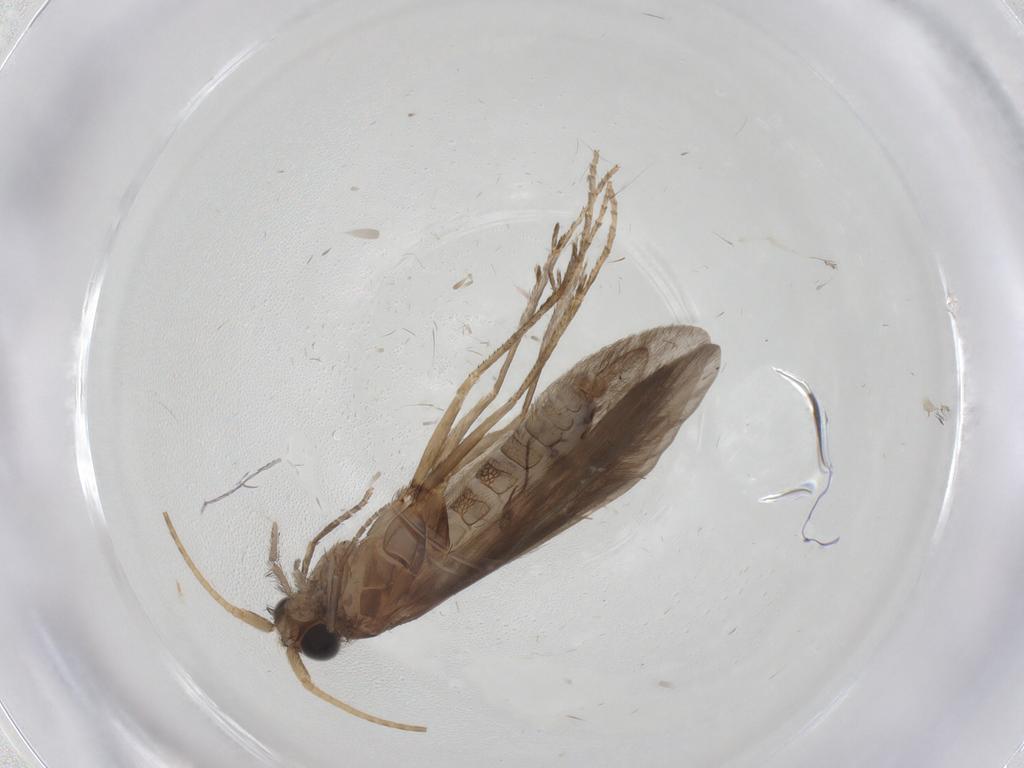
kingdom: Animalia
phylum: Arthropoda
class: Insecta
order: Trichoptera
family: Helicopsychidae
